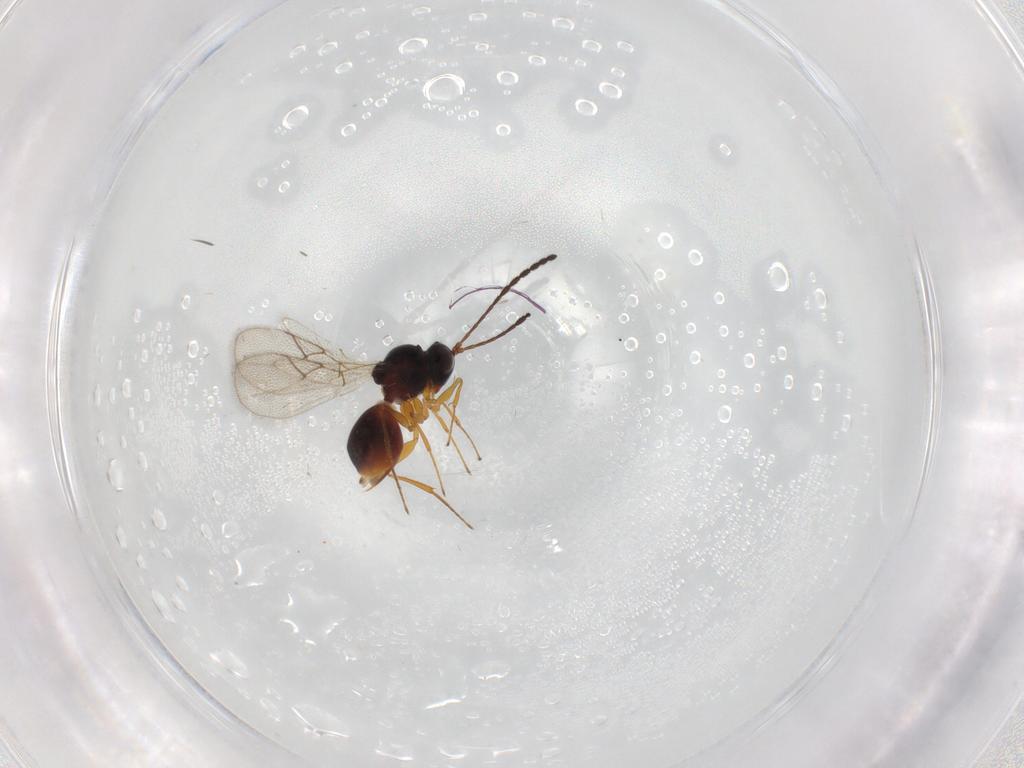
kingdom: Animalia
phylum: Arthropoda
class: Insecta
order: Hymenoptera
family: Figitidae
